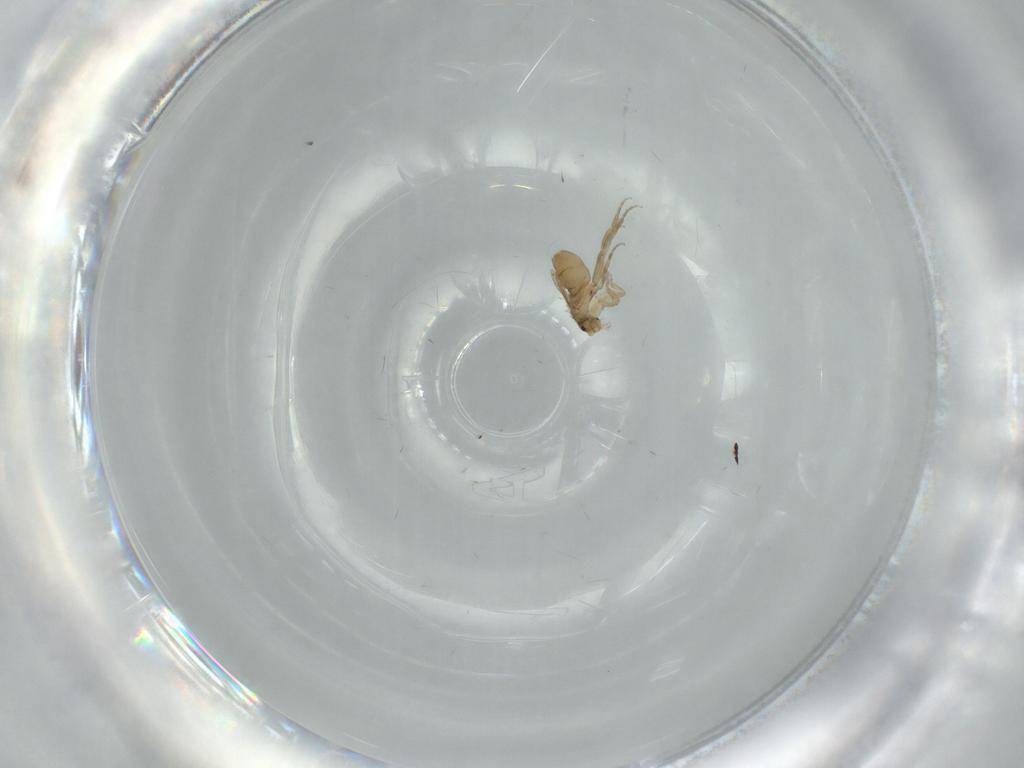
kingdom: Animalia
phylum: Arthropoda
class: Insecta
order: Diptera
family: Phoridae
